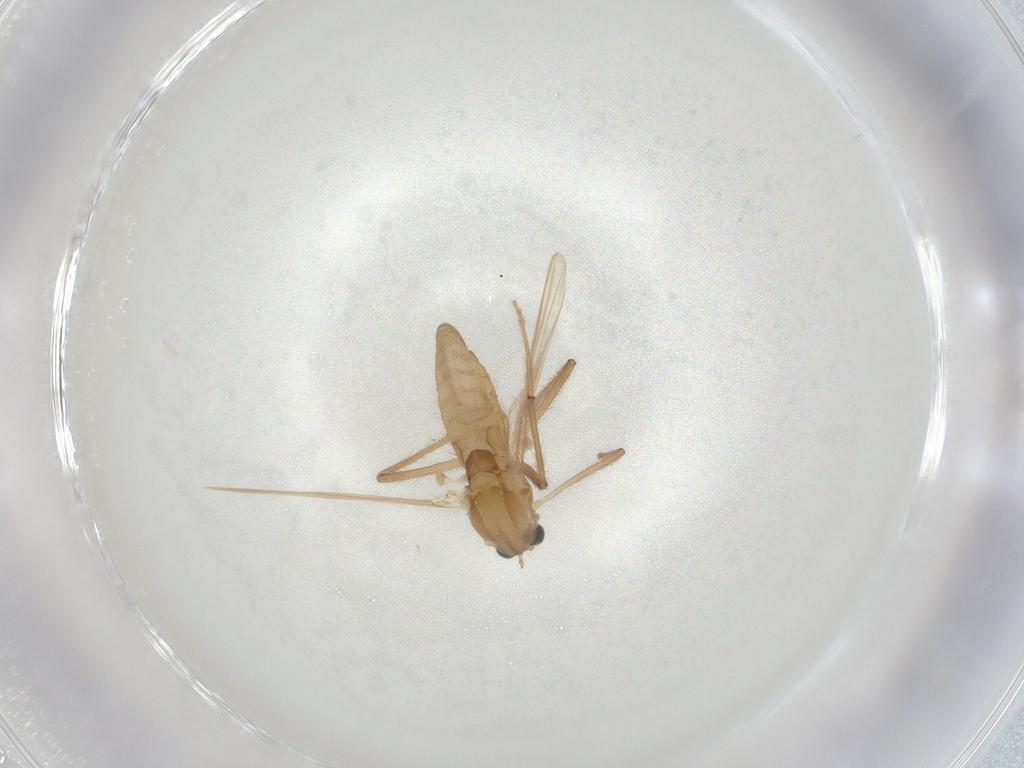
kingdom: Animalia
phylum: Arthropoda
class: Insecta
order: Diptera
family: Chironomidae
